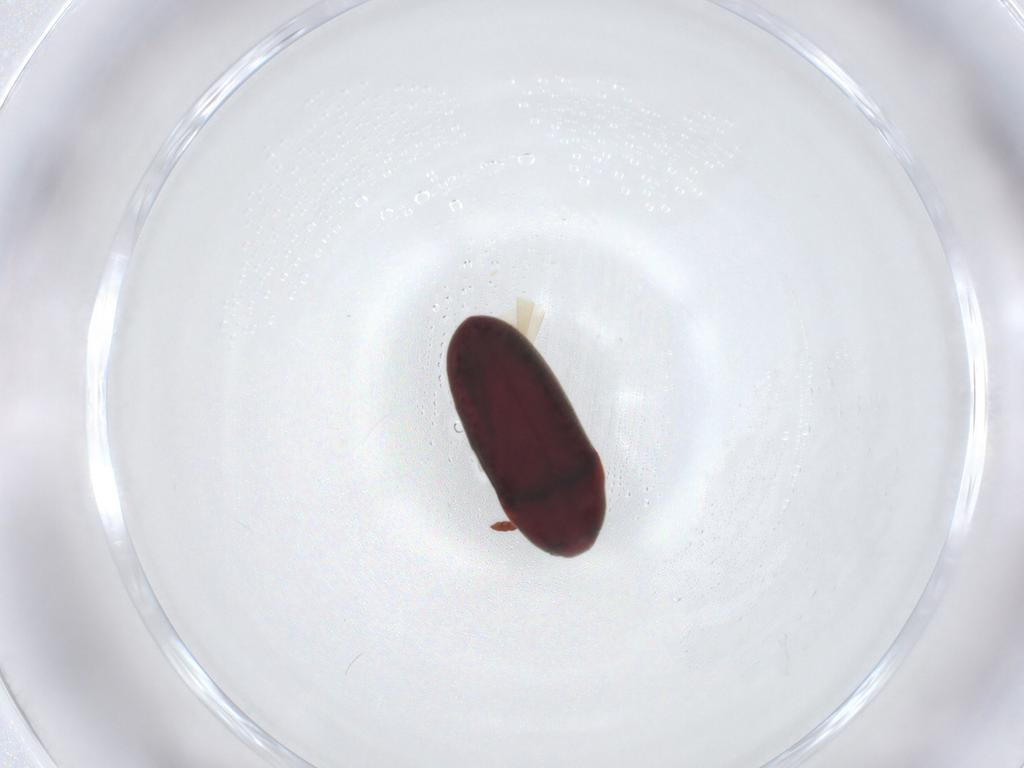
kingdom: Animalia
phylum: Arthropoda
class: Insecta
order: Coleoptera
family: Throscidae
